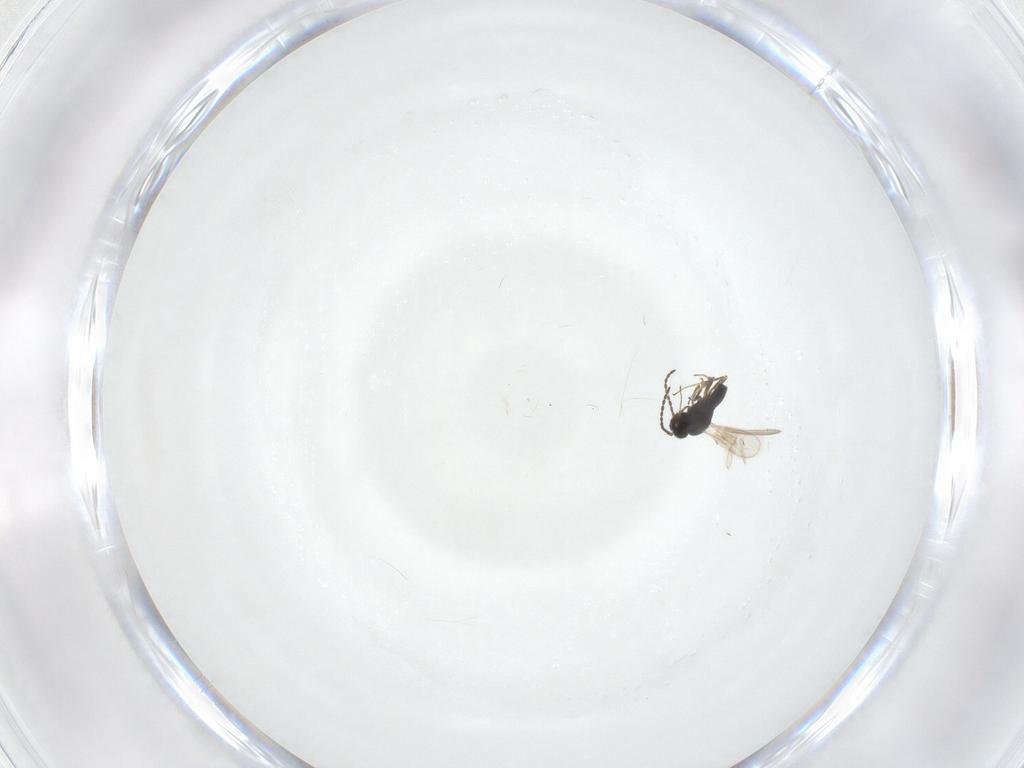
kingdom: Animalia
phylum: Arthropoda
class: Insecta
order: Hymenoptera
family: Scelionidae
